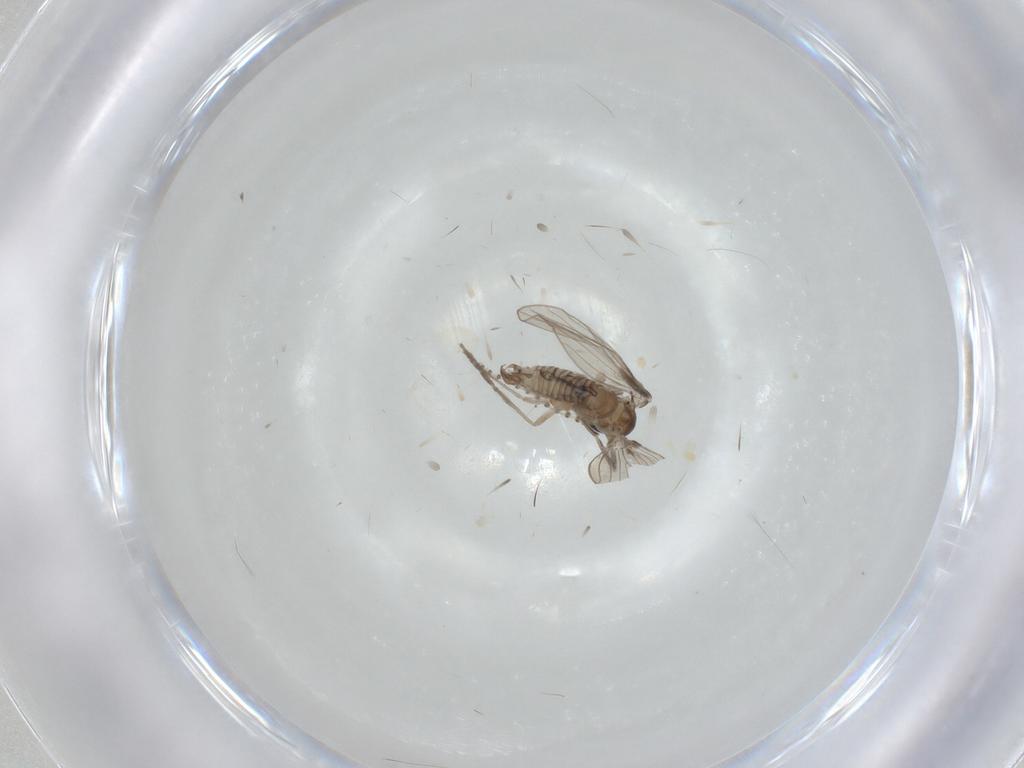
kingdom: Animalia
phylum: Arthropoda
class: Insecta
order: Diptera
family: Psychodidae
